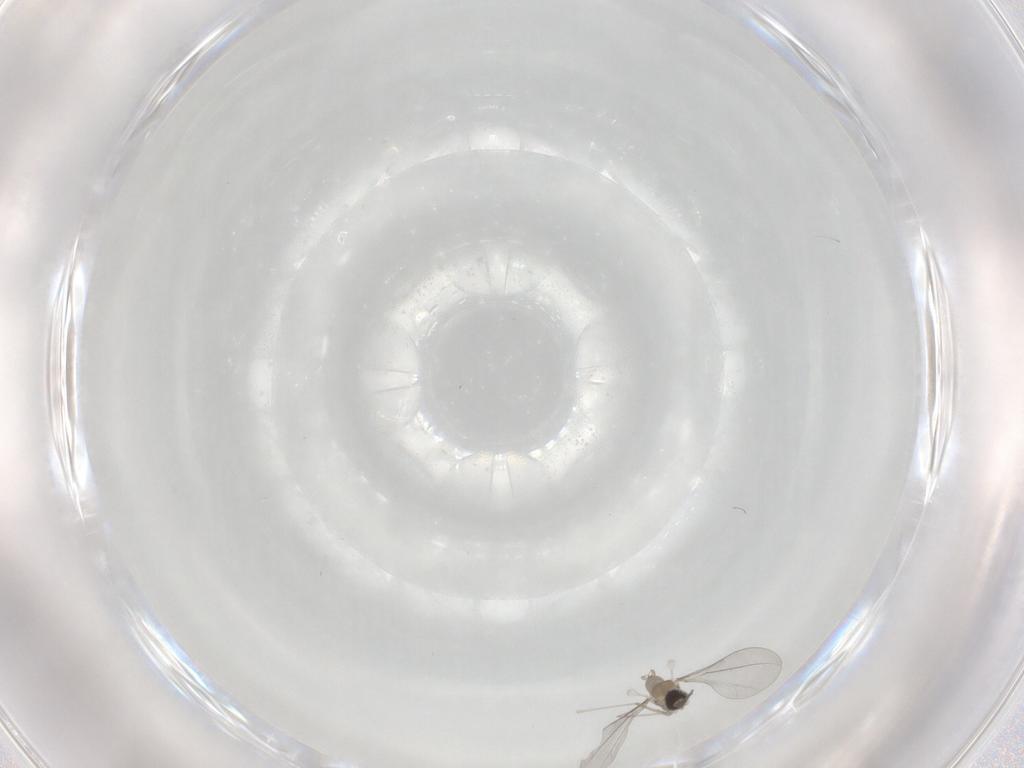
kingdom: Animalia
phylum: Arthropoda
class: Insecta
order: Diptera
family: Cecidomyiidae
